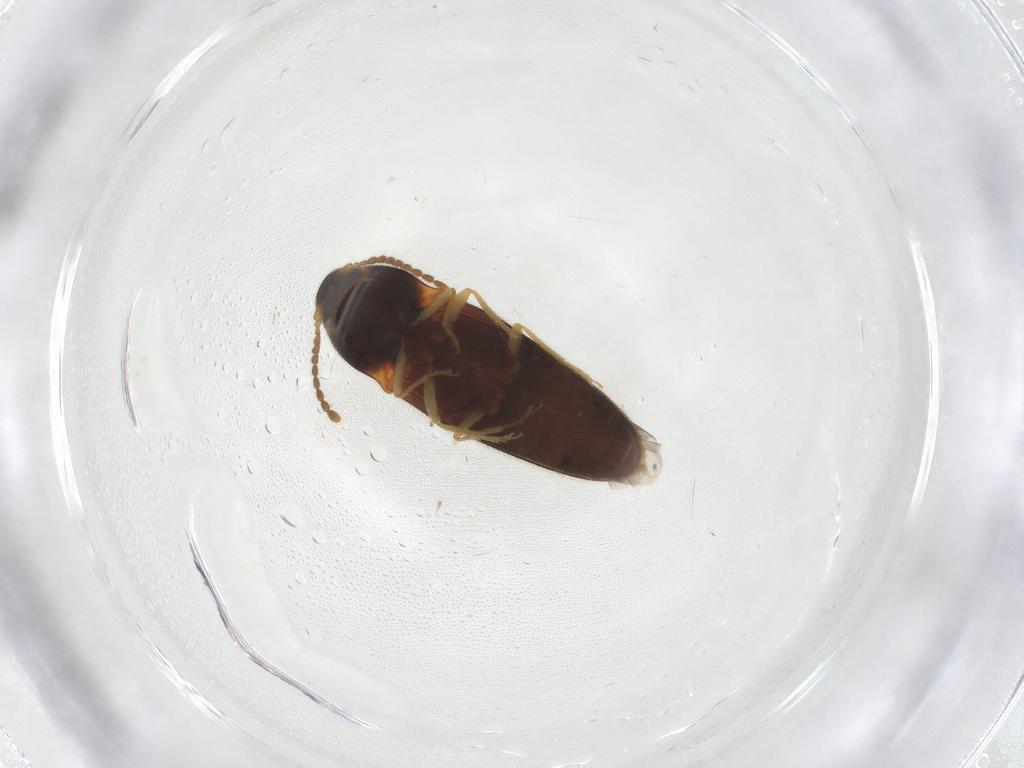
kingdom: Animalia
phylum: Arthropoda
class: Insecta
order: Coleoptera
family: Elateridae
